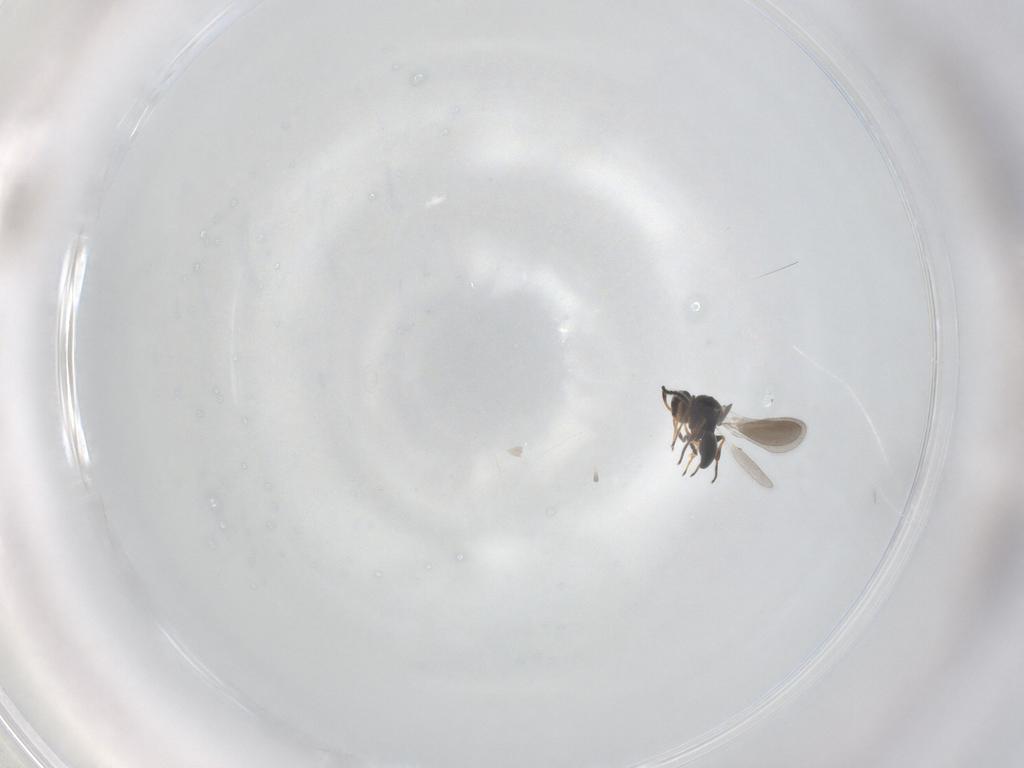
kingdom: Animalia
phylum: Arthropoda
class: Insecta
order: Hymenoptera
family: Platygastridae
